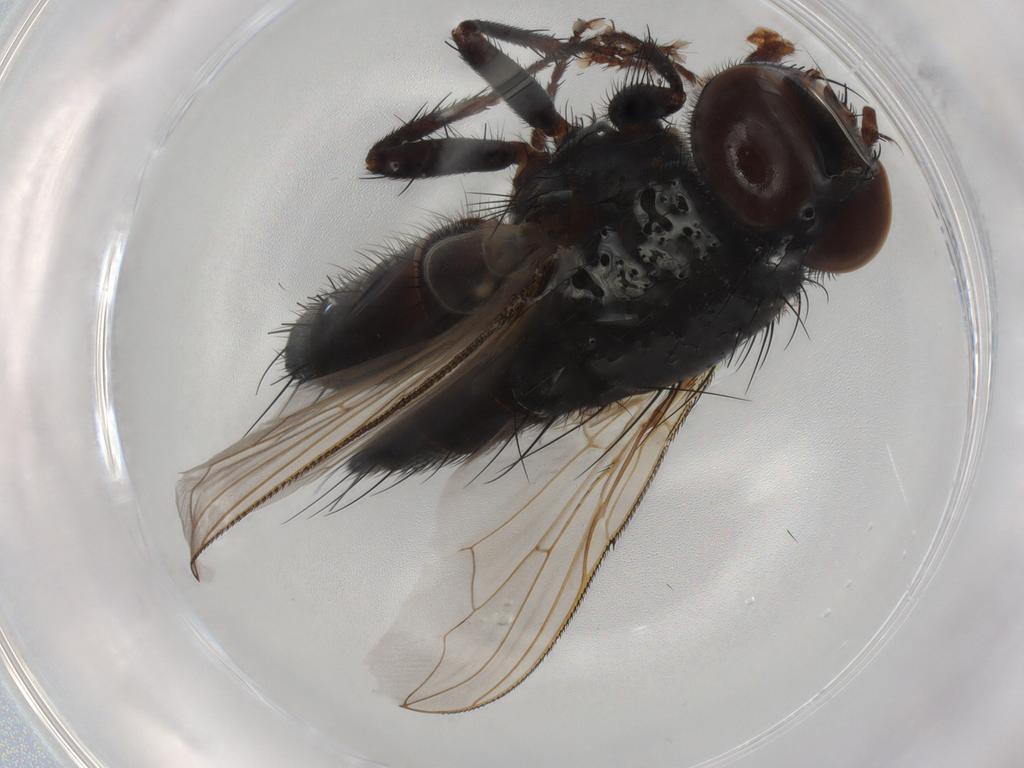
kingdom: Animalia
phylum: Arthropoda
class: Insecta
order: Diptera
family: Sarcophagidae
